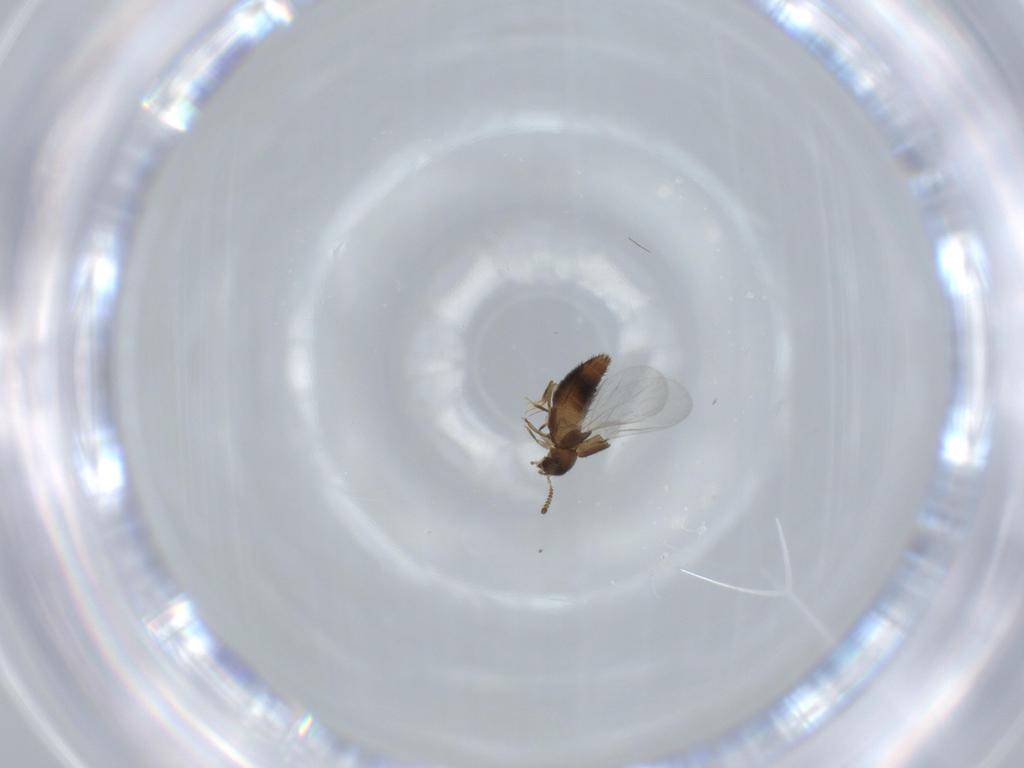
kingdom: Animalia
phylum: Arthropoda
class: Insecta
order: Coleoptera
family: Staphylinidae
